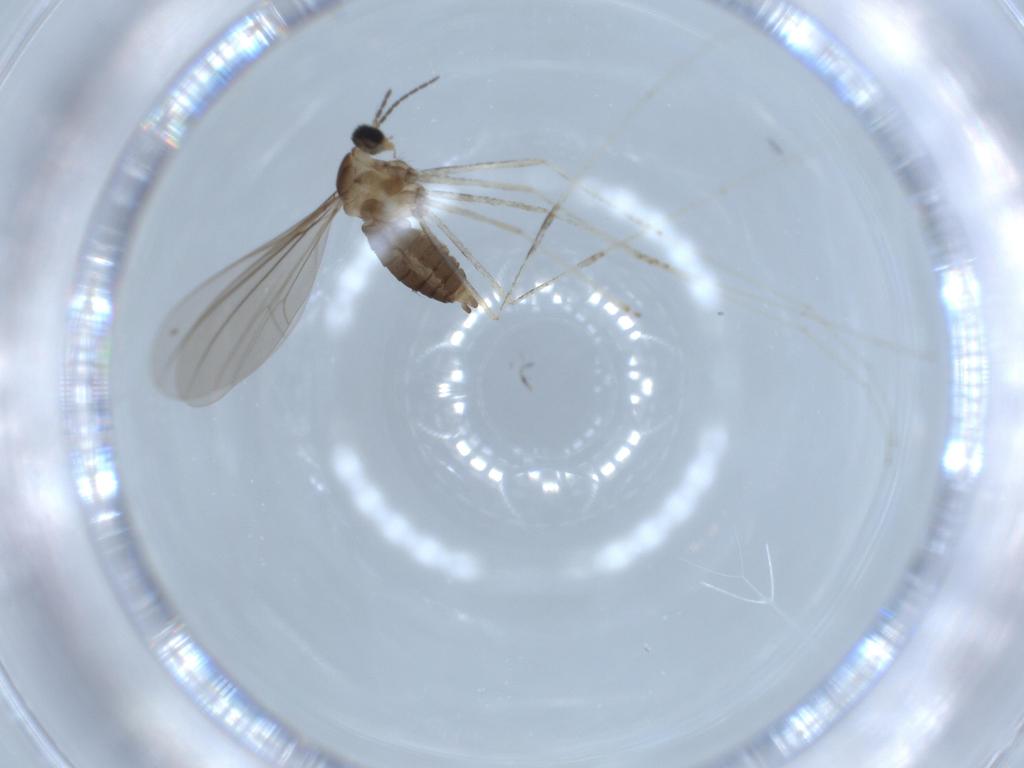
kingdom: Animalia
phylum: Arthropoda
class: Insecta
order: Diptera
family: Cecidomyiidae
